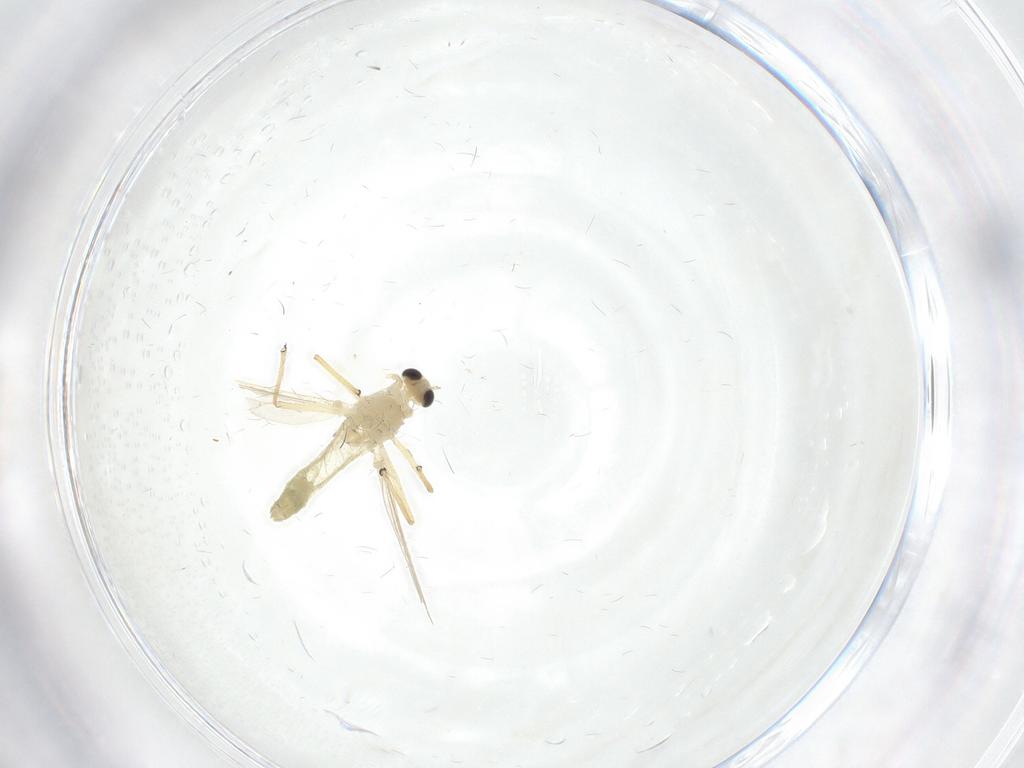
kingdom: Animalia
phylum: Arthropoda
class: Insecta
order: Diptera
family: Chironomidae
